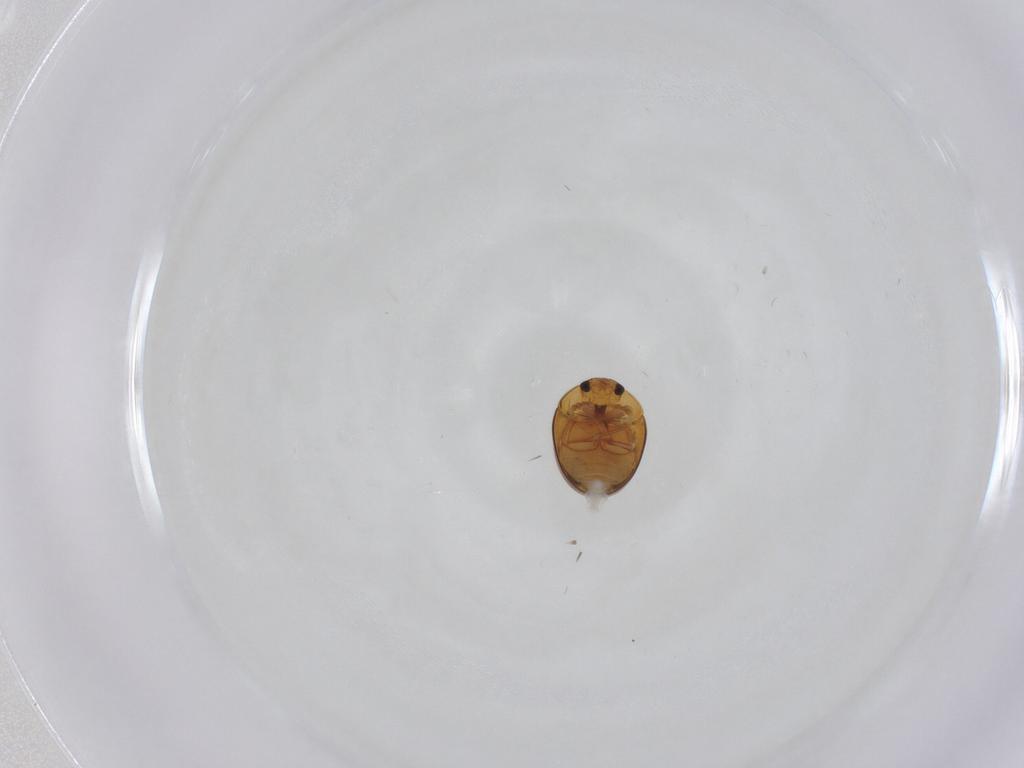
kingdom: Animalia
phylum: Arthropoda
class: Insecta
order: Coleoptera
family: Phalacridae
